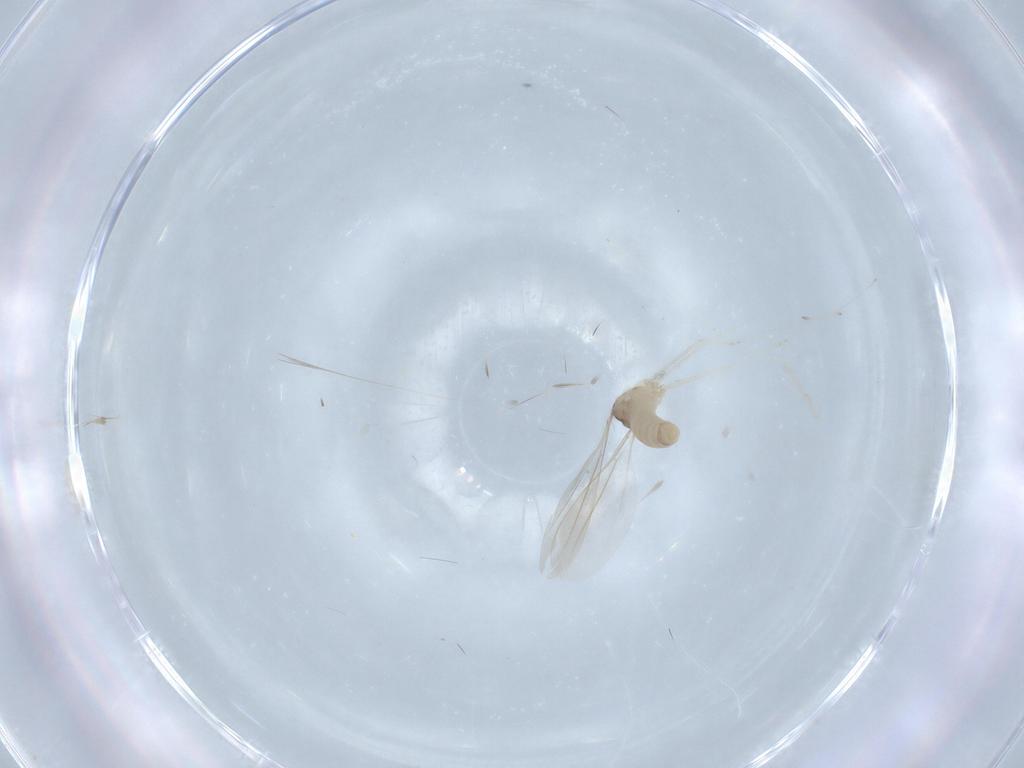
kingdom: Animalia
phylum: Arthropoda
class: Insecta
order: Diptera
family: Cecidomyiidae
